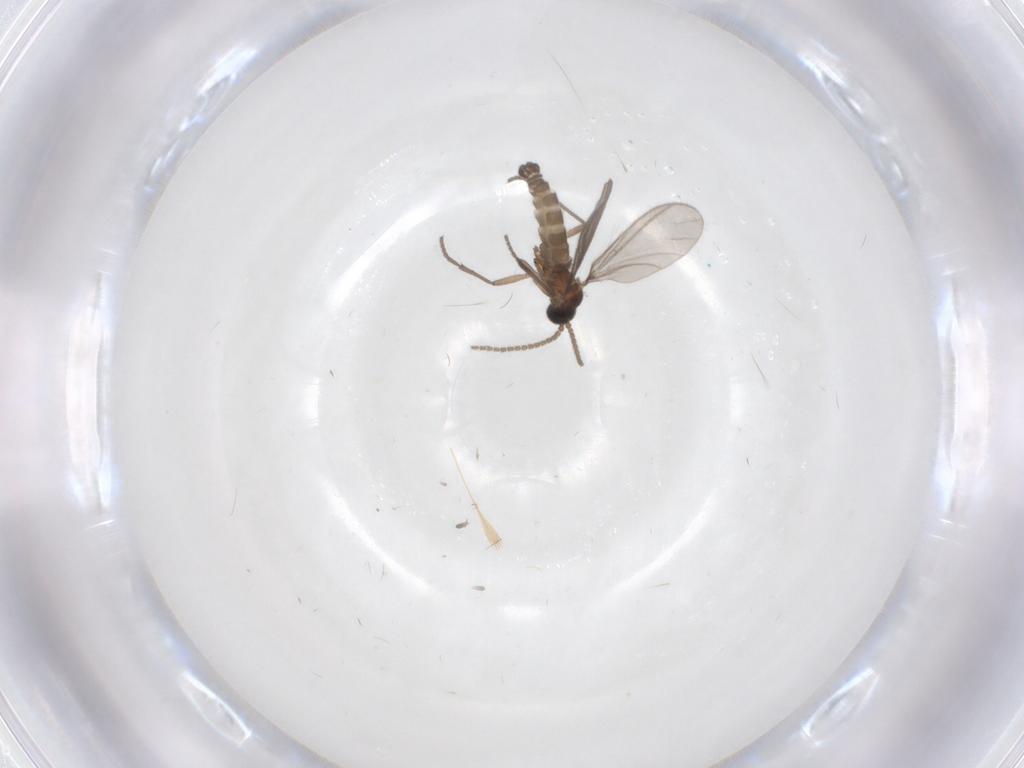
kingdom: Animalia
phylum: Arthropoda
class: Insecta
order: Diptera
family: Sciaridae
